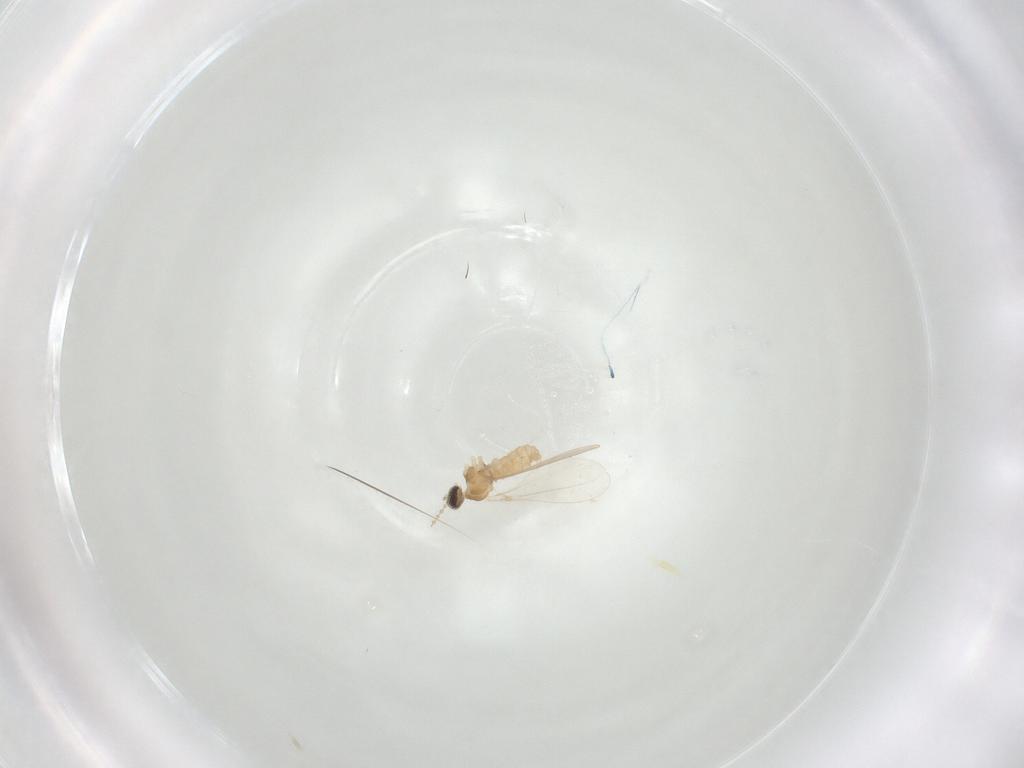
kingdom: Animalia
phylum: Arthropoda
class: Insecta
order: Diptera
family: Cecidomyiidae
